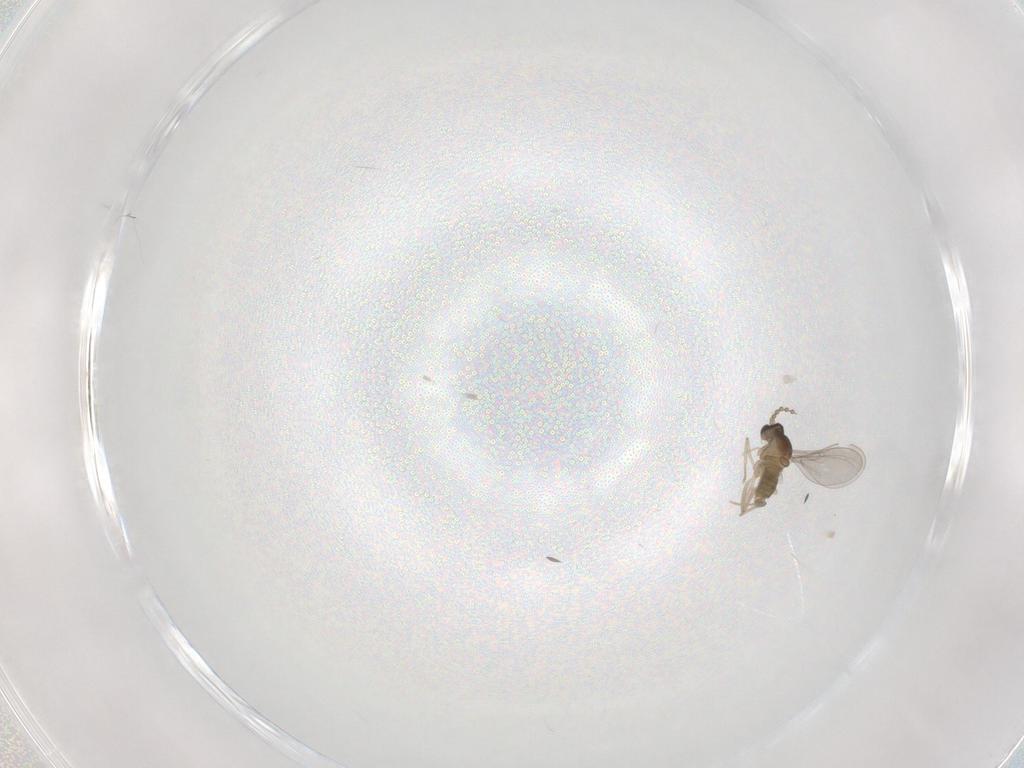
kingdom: Animalia
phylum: Arthropoda
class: Insecta
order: Diptera
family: Cecidomyiidae
